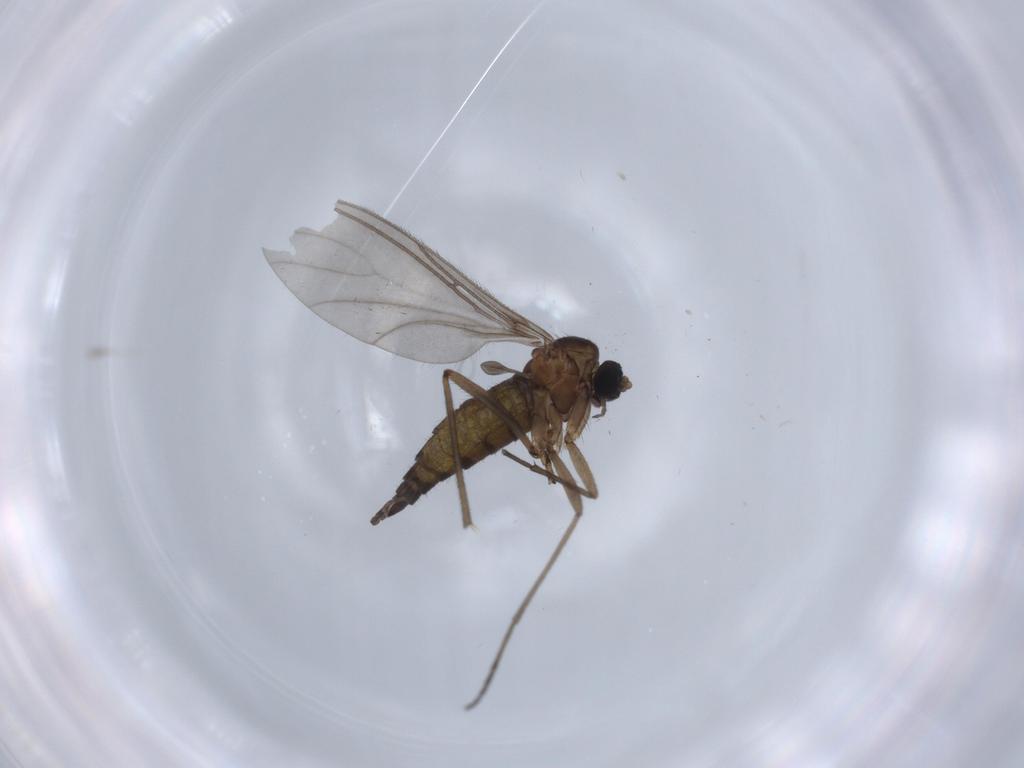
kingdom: Animalia
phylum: Arthropoda
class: Insecta
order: Diptera
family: Sciaridae
